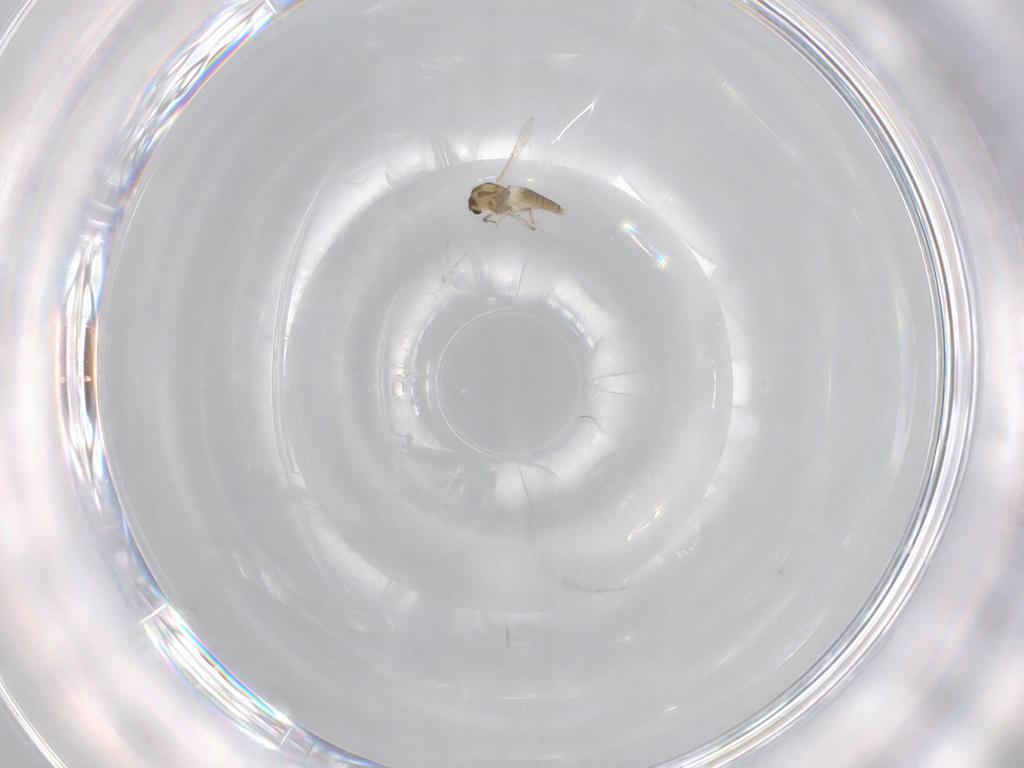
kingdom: Animalia
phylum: Arthropoda
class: Insecta
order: Diptera
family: Chironomidae
